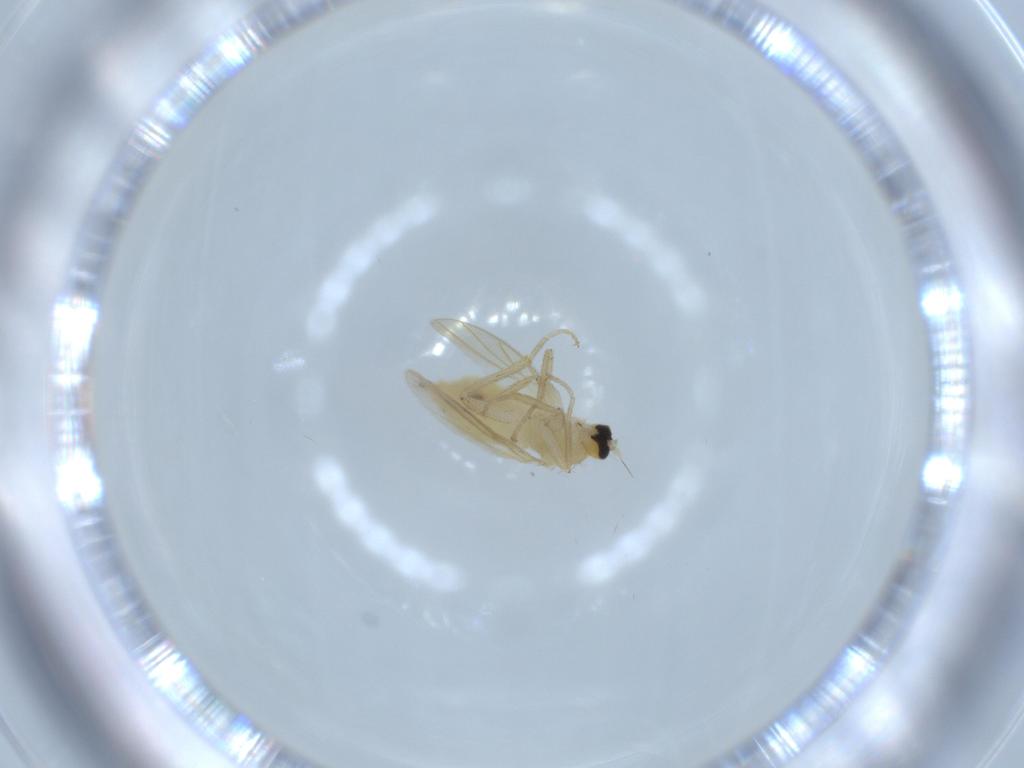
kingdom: Animalia
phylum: Arthropoda
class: Insecta
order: Diptera
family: Hybotidae
